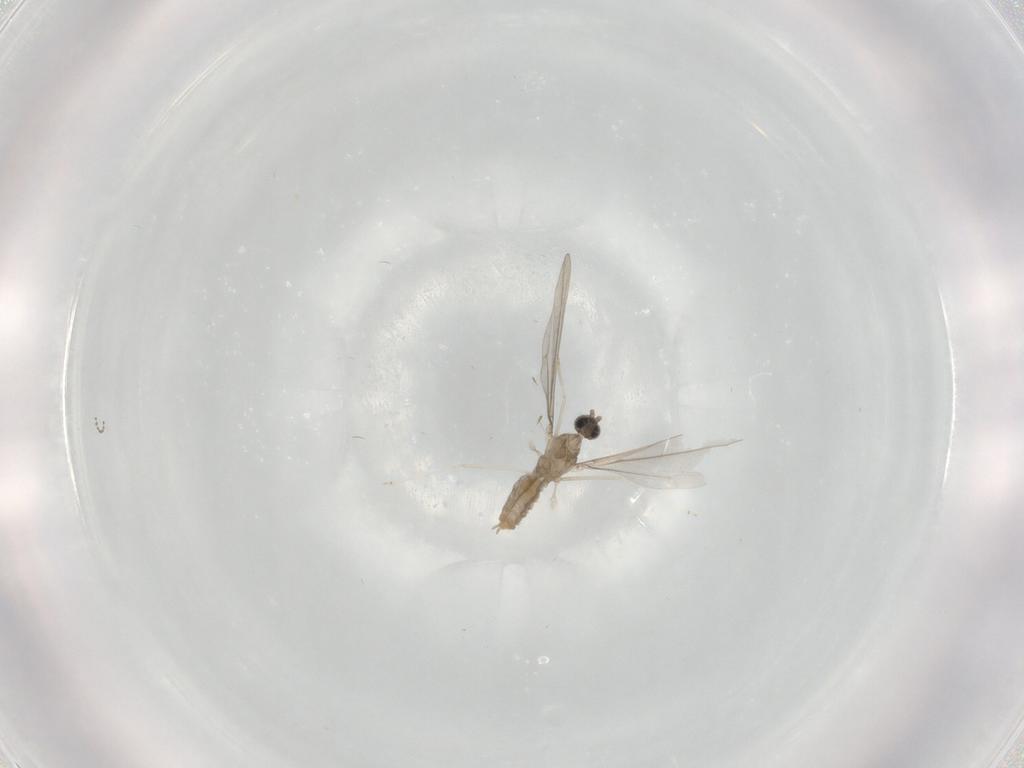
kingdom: Animalia
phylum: Arthropoda
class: Insecta
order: Diptera
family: Cecidomyiidae
